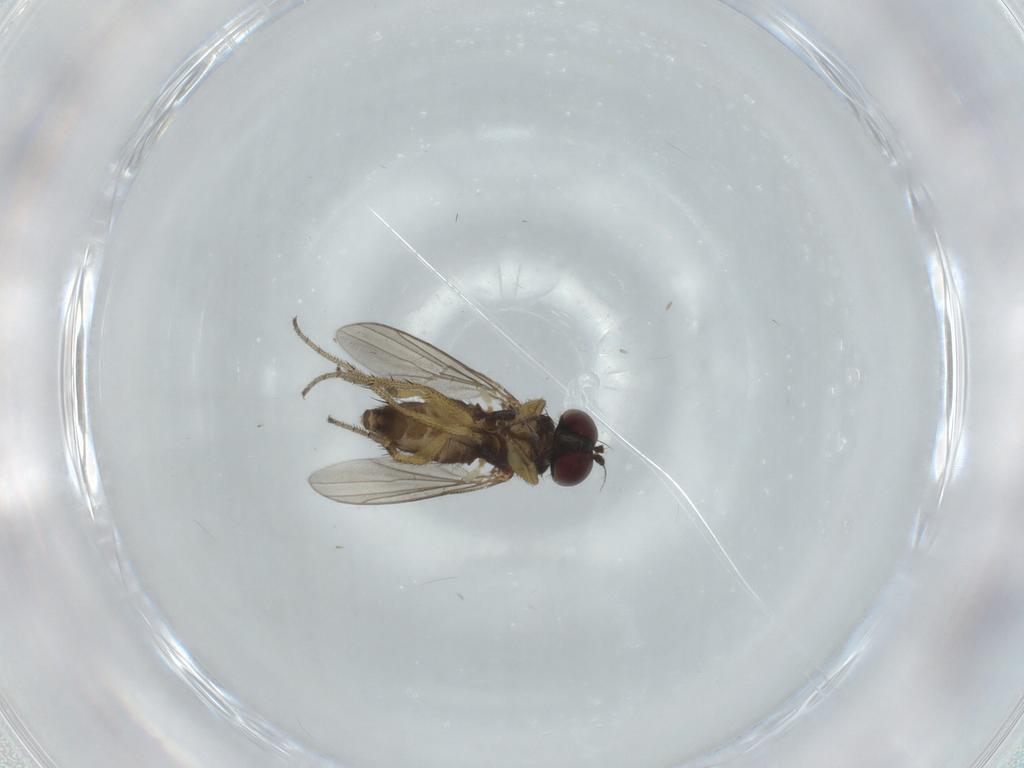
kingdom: Animalia
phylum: Arthropoda
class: Insecta
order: Diptera
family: Dolichopodidae
